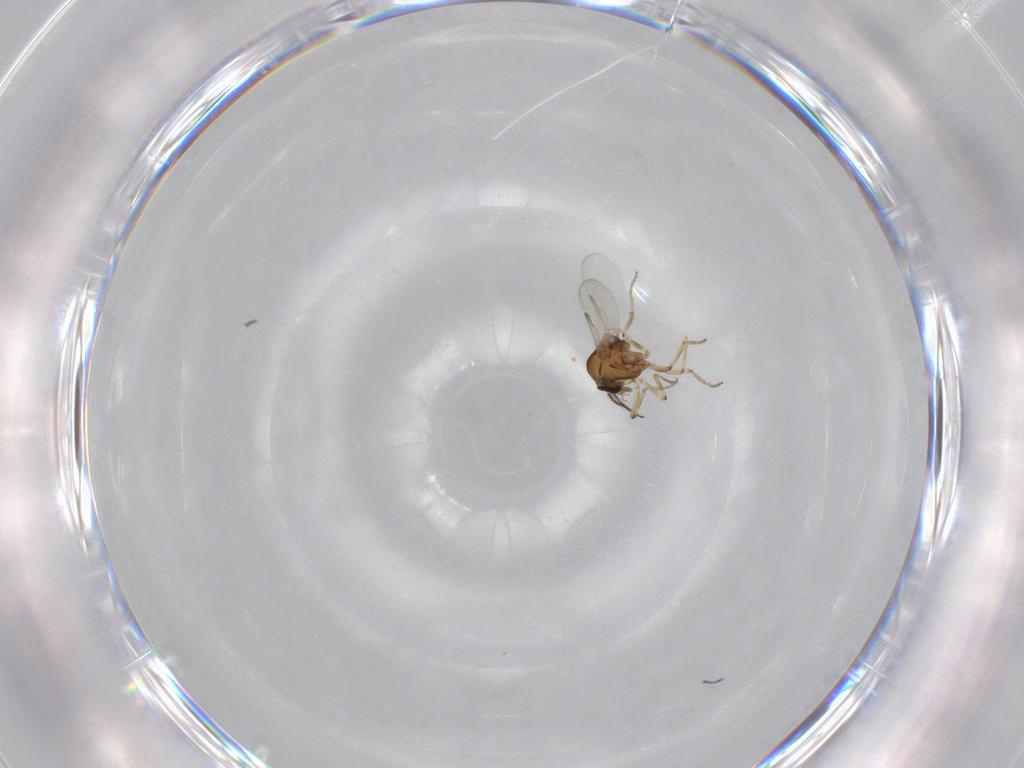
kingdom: Animalia
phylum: Arthropoda
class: Insecta
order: Diptera
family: Ceratopogonidae
